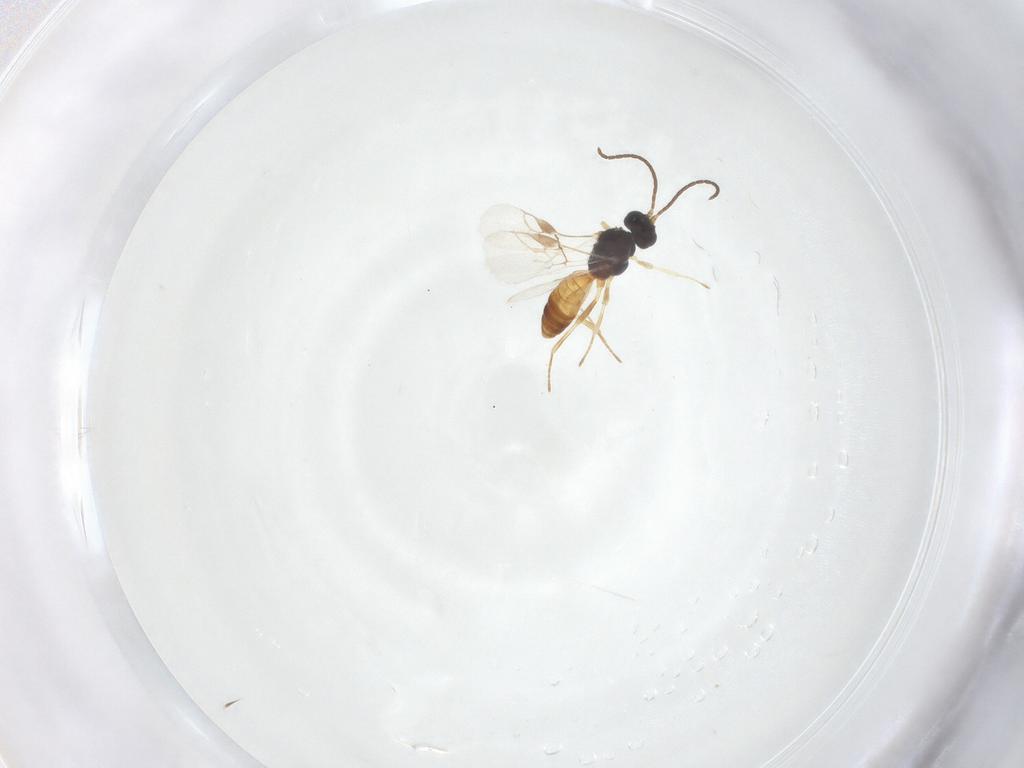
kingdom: Animalia
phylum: Arthropoda
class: Insecta
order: Hymenoptera
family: Braconidae
